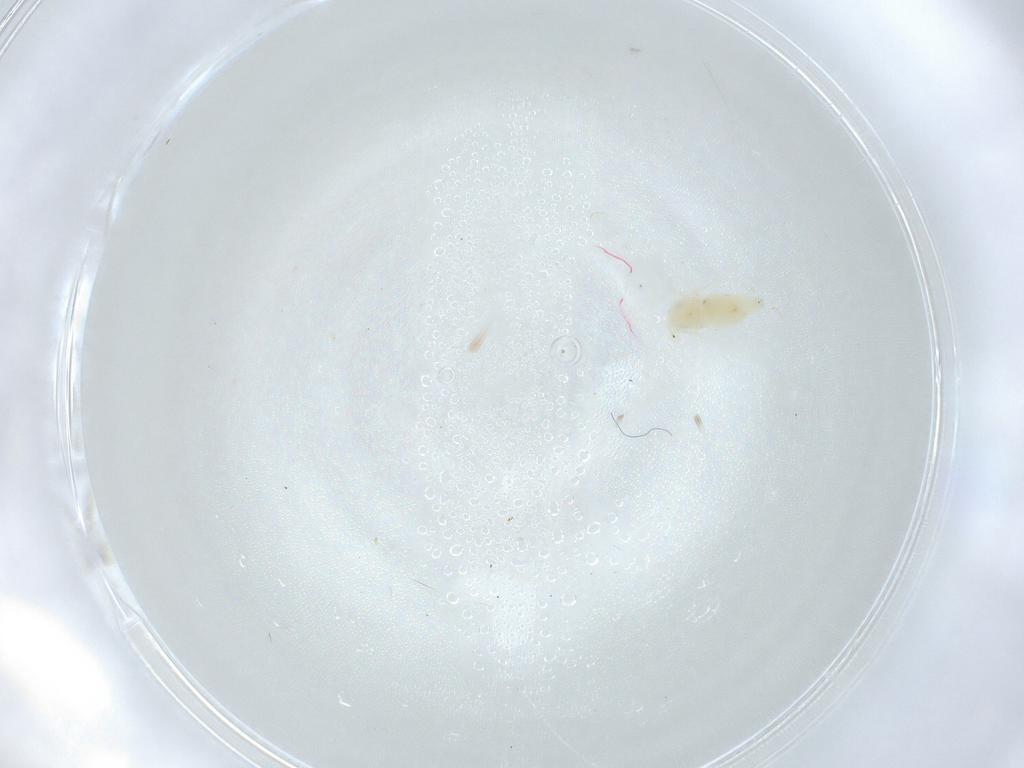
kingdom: Animalia
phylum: Arthropoda
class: Insecta
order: Hemiptera
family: Aleyrodidae
